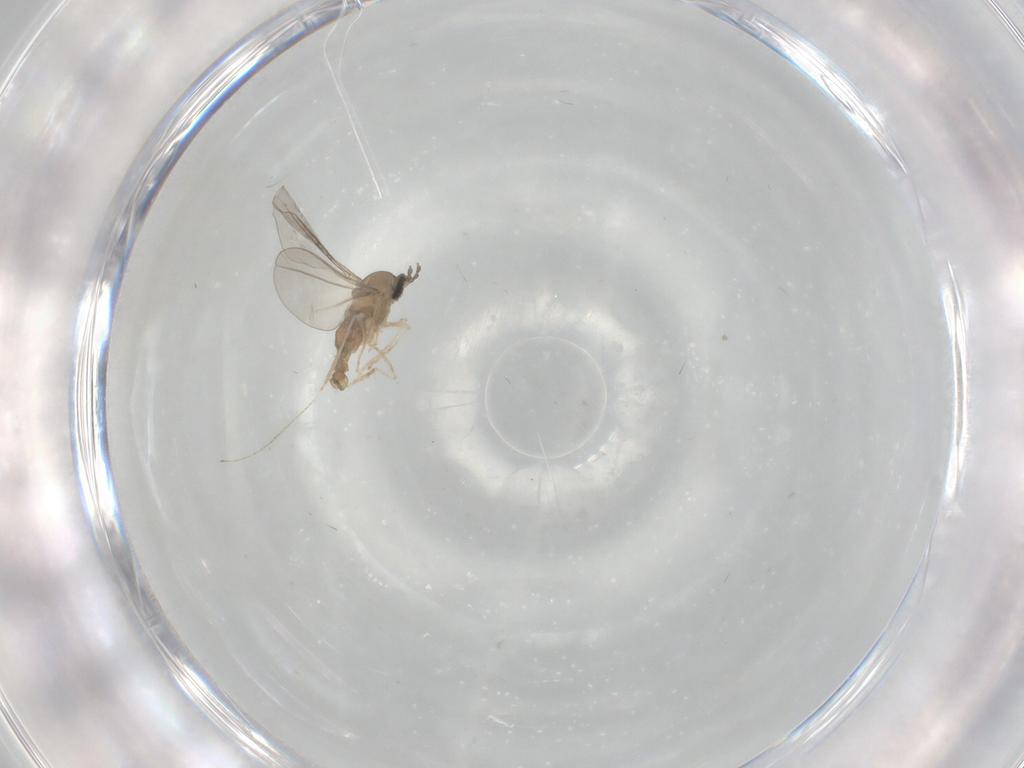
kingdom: Animalia
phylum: Arthropoda
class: Insecta
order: Diptera
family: Cecidomyiidae
